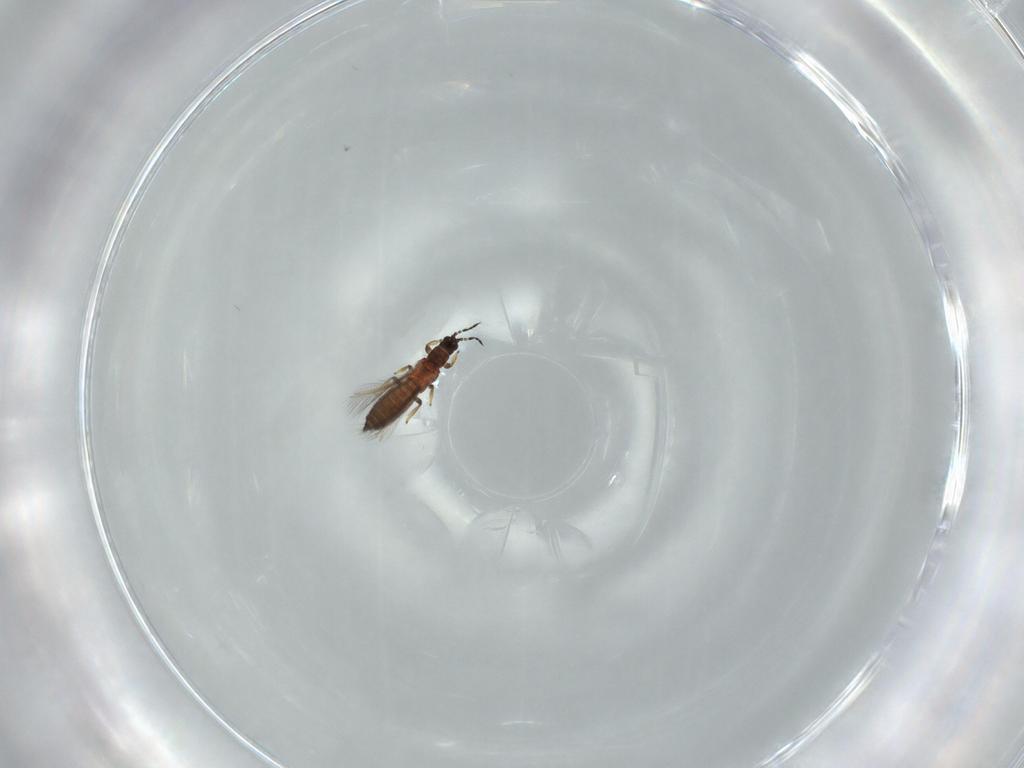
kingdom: Animalia
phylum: Arthropoda
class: Insecta
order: Thysanoptera
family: Thripidae
